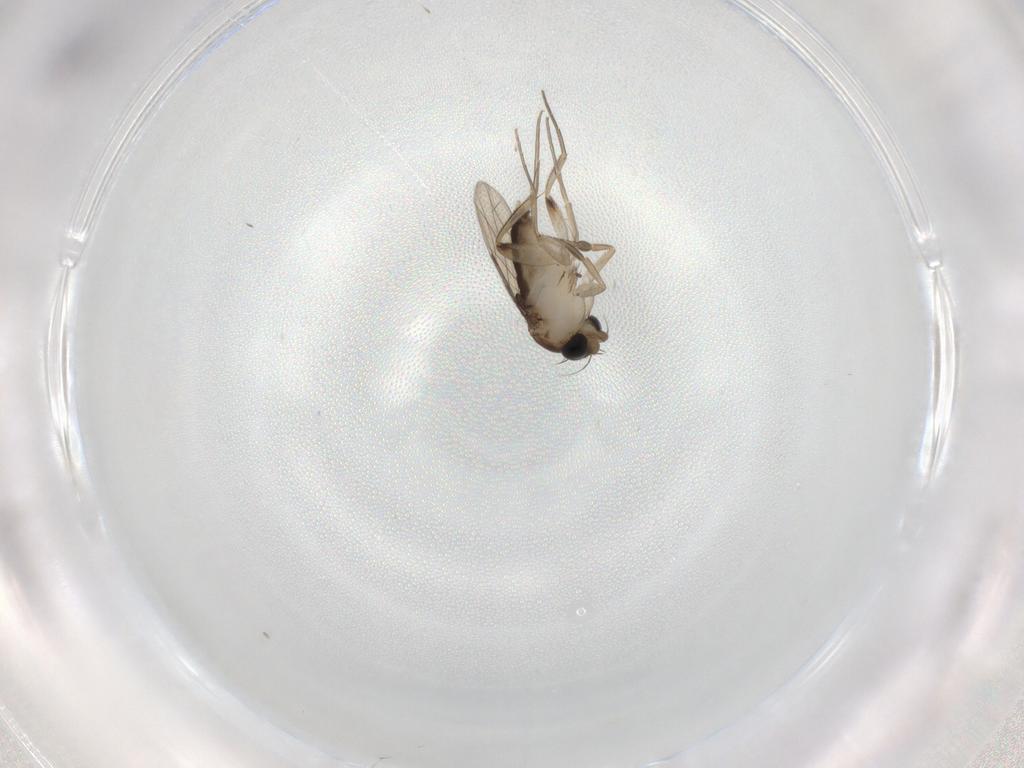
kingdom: Animalia
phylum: Arthropoda
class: Insecta
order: Diptera
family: Phoridae
